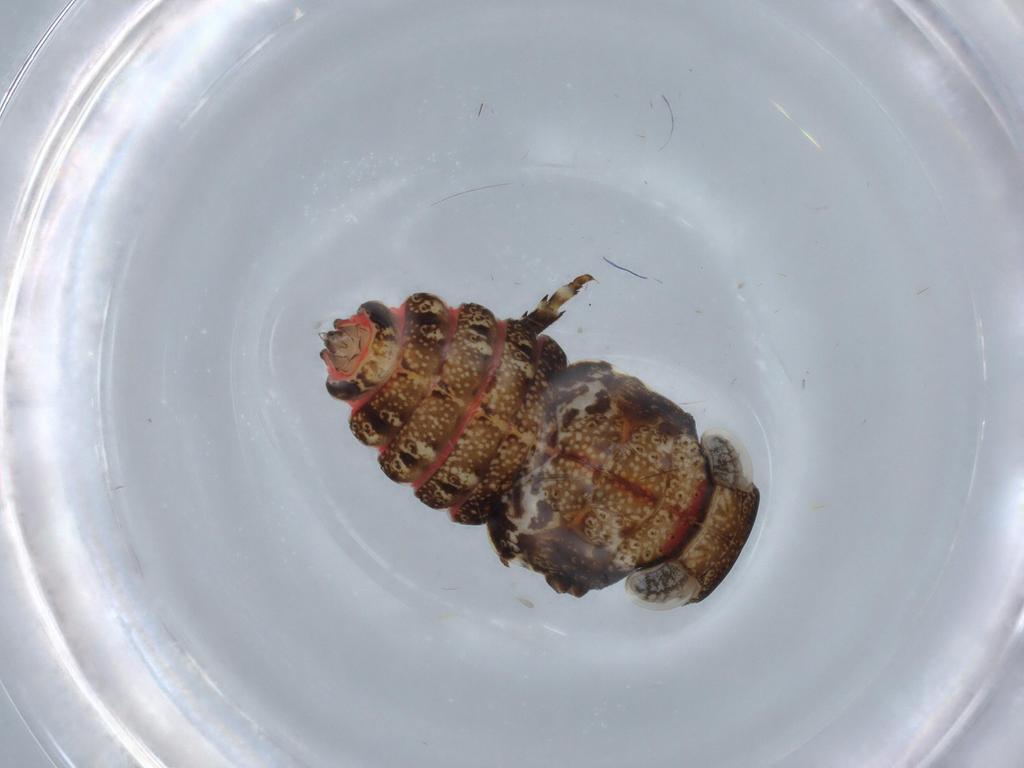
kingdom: Animalia
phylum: Arthropoda
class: Insecta
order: Hemiptera
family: Issidae
